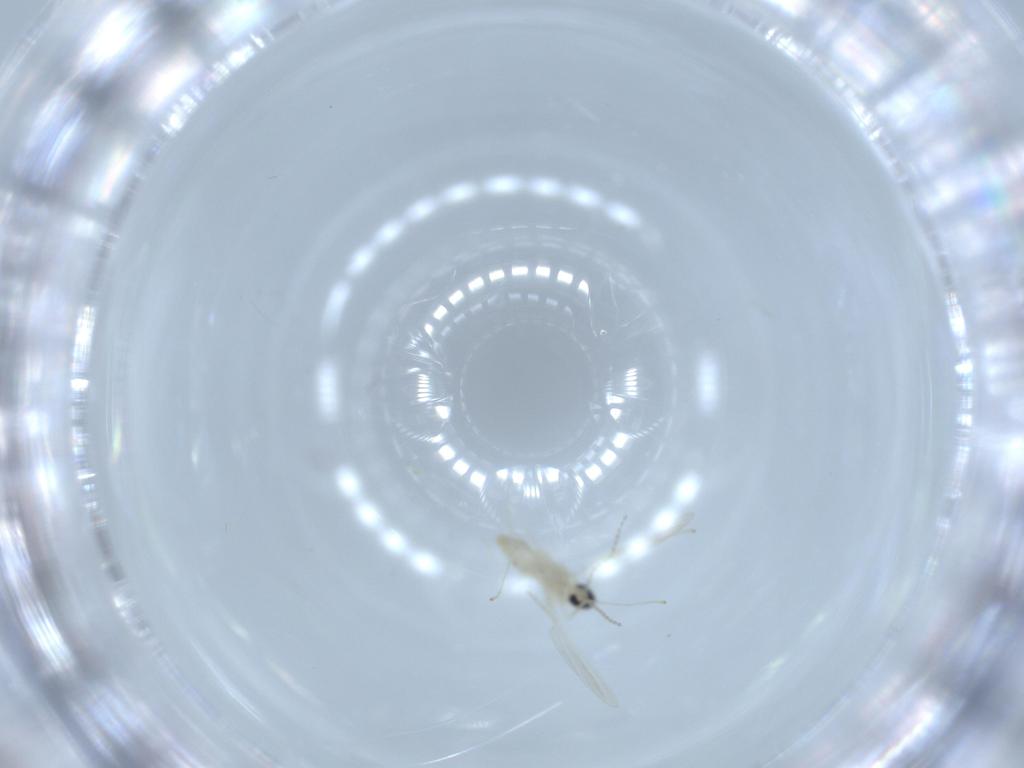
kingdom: Animalia
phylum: Arthropoda
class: Insecta
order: Diptera
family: Cecidomyiidae
